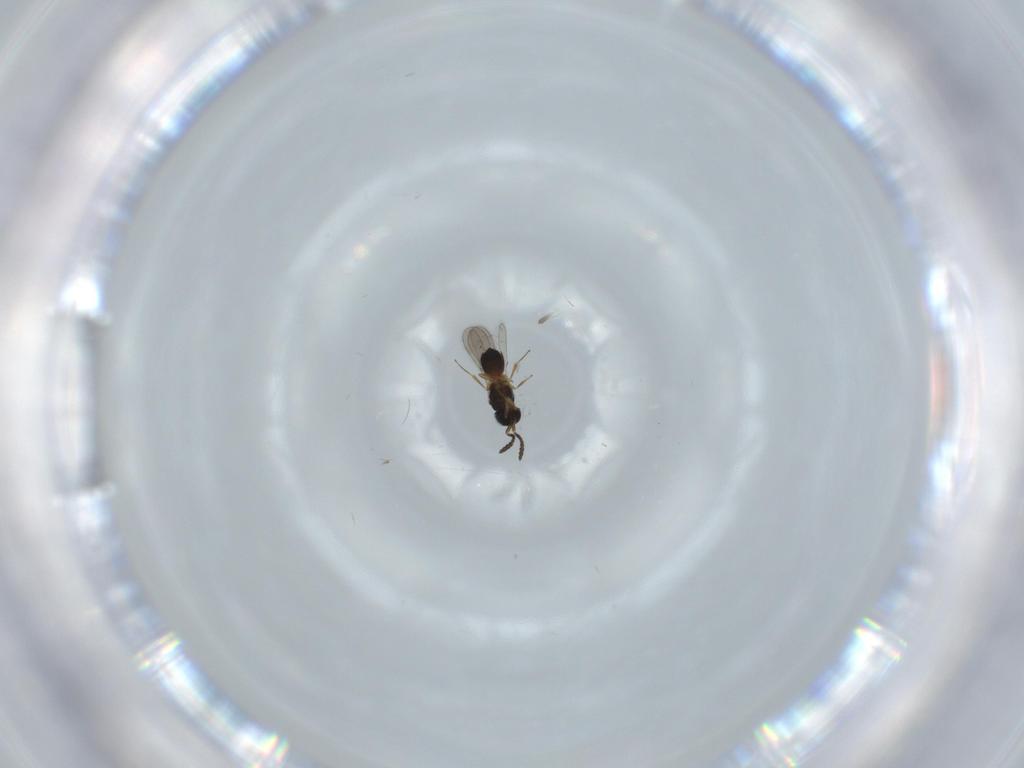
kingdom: Animalia
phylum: Arthropoda
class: Insecta
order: Hymenoptera
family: Scelionidae
